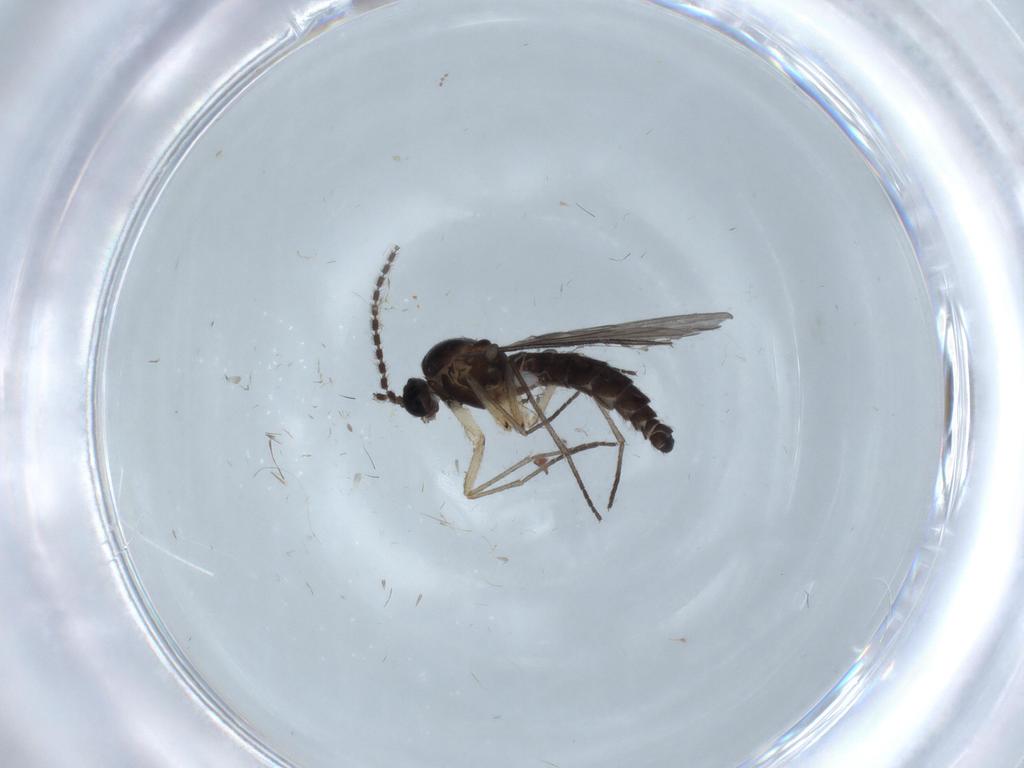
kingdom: Animalia
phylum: Arthropoda
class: Insecta
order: Diptera
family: Sciaridae
